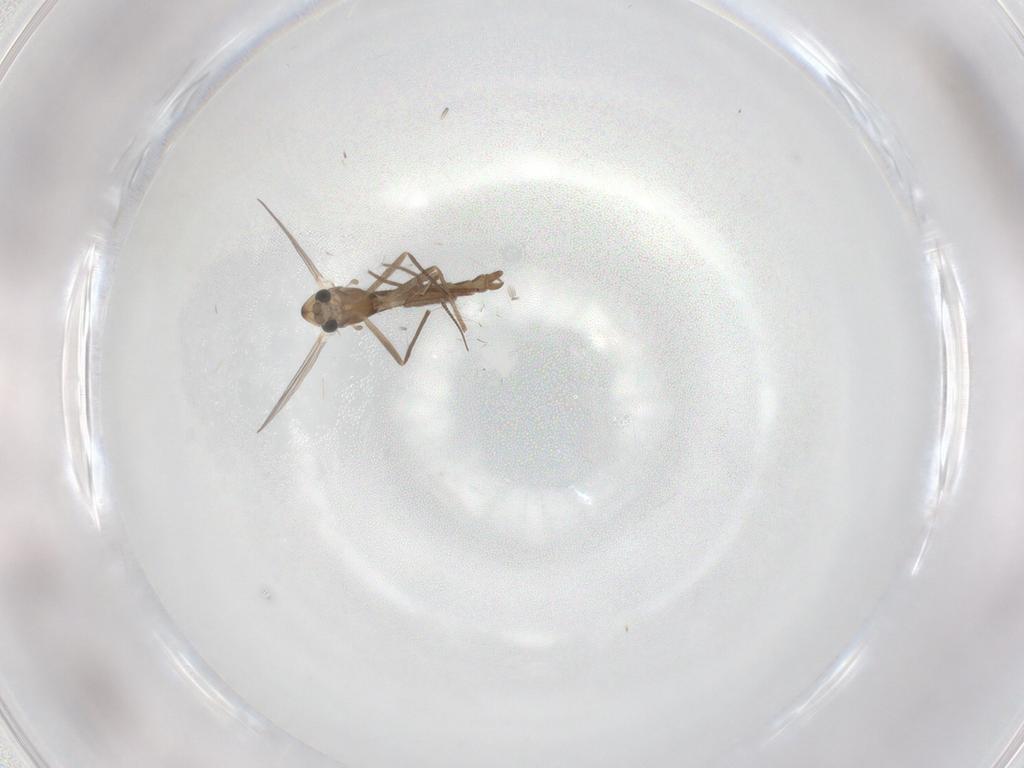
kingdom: Animalia
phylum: Arthropoda
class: Insecta
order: Diptera
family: Chironomidae
